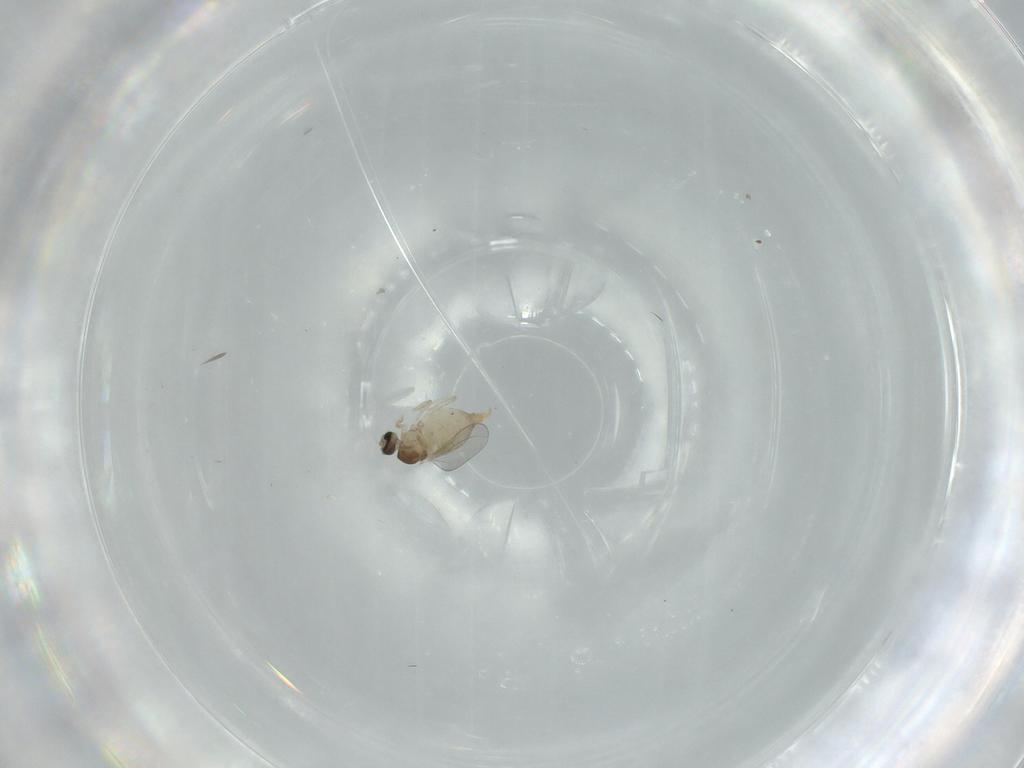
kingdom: Animalia
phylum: Arthropoda
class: Insecta
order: Diptera
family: Cecidomyiidae
